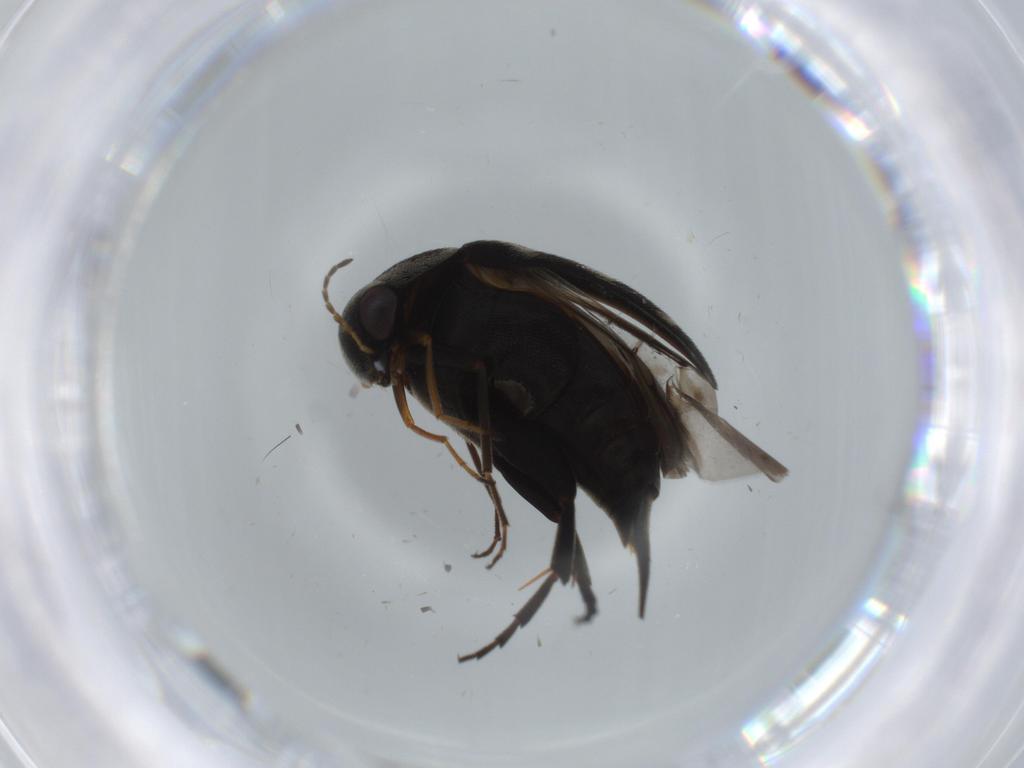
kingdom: Animalia
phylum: Arthropoda
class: Insecta
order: Coleoptera
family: Chrysomelidae
